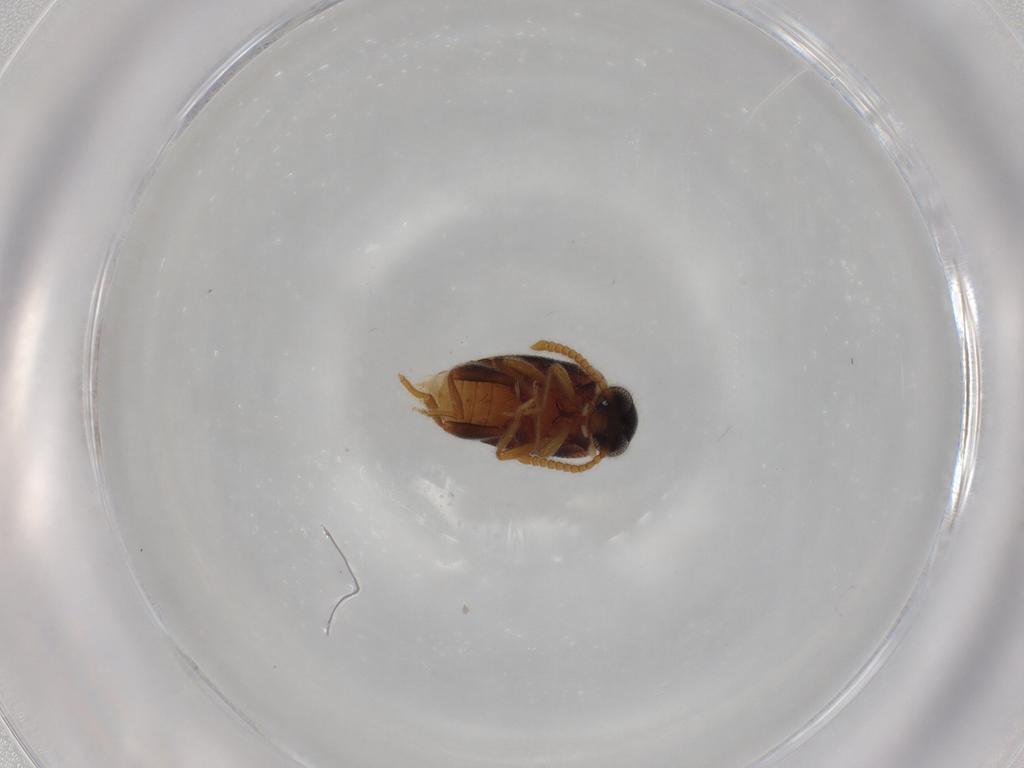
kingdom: Animalia
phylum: Arthropoda
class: Insecta
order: Coleoptera
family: Aderidae
